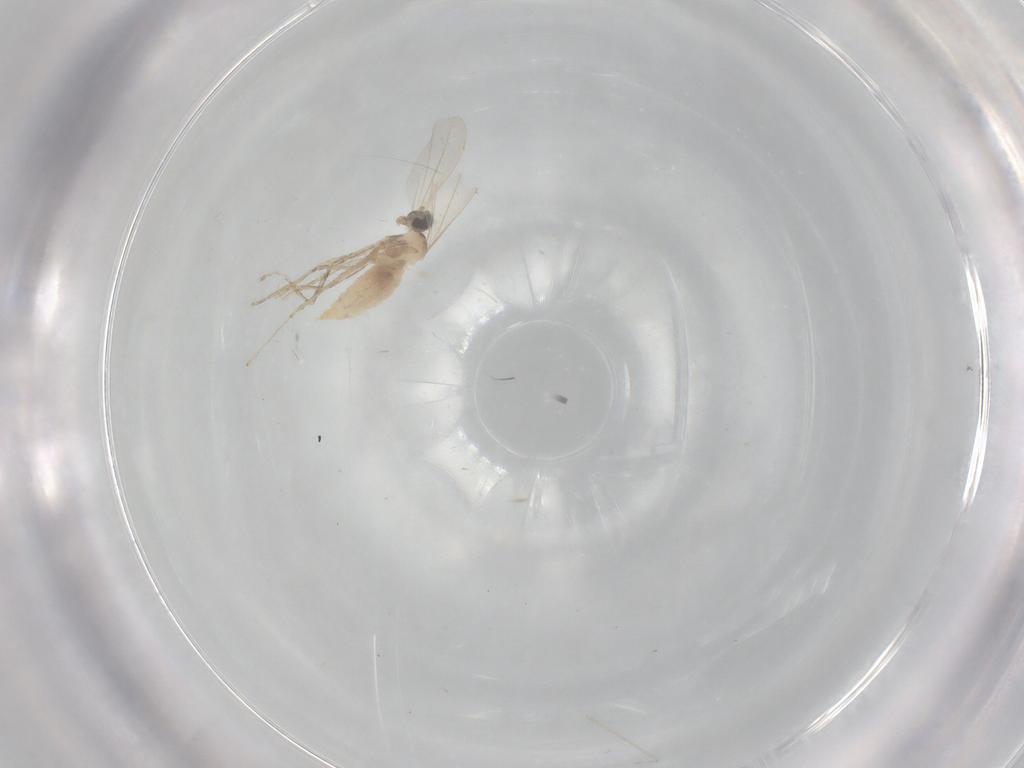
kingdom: Animalia
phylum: Arthropoda
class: Insecta
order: Diptera
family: Cecidomyiidae
